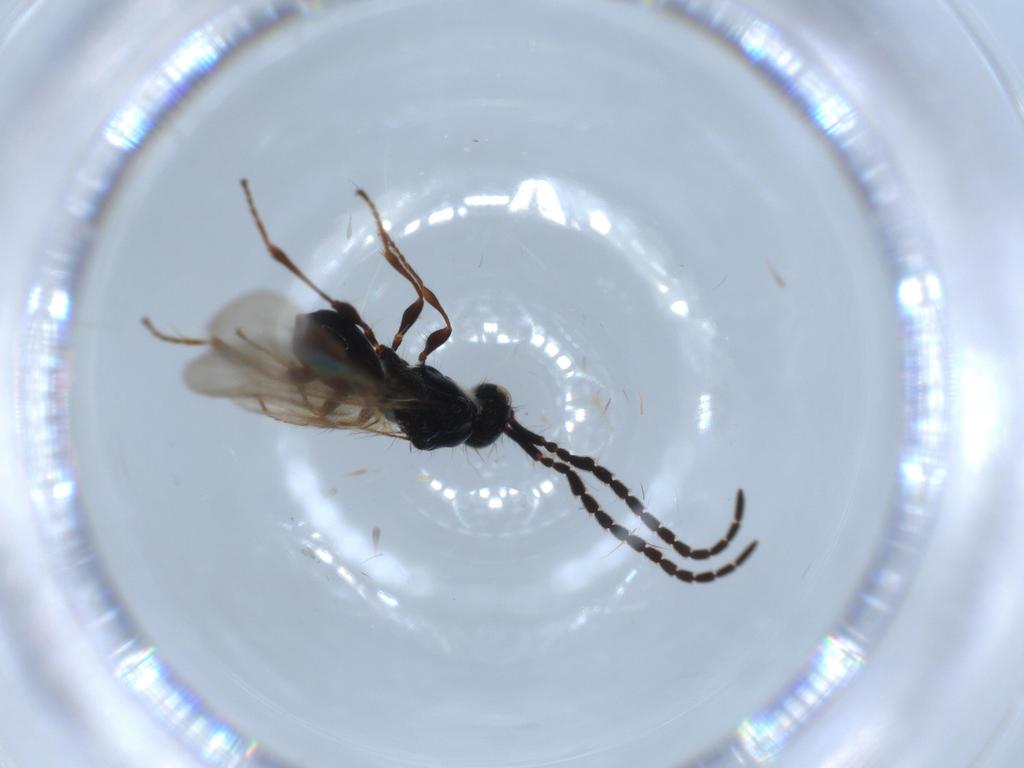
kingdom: Animalia
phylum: Arthropoda
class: Insecta
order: Hymenoptera
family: Diapriidae
